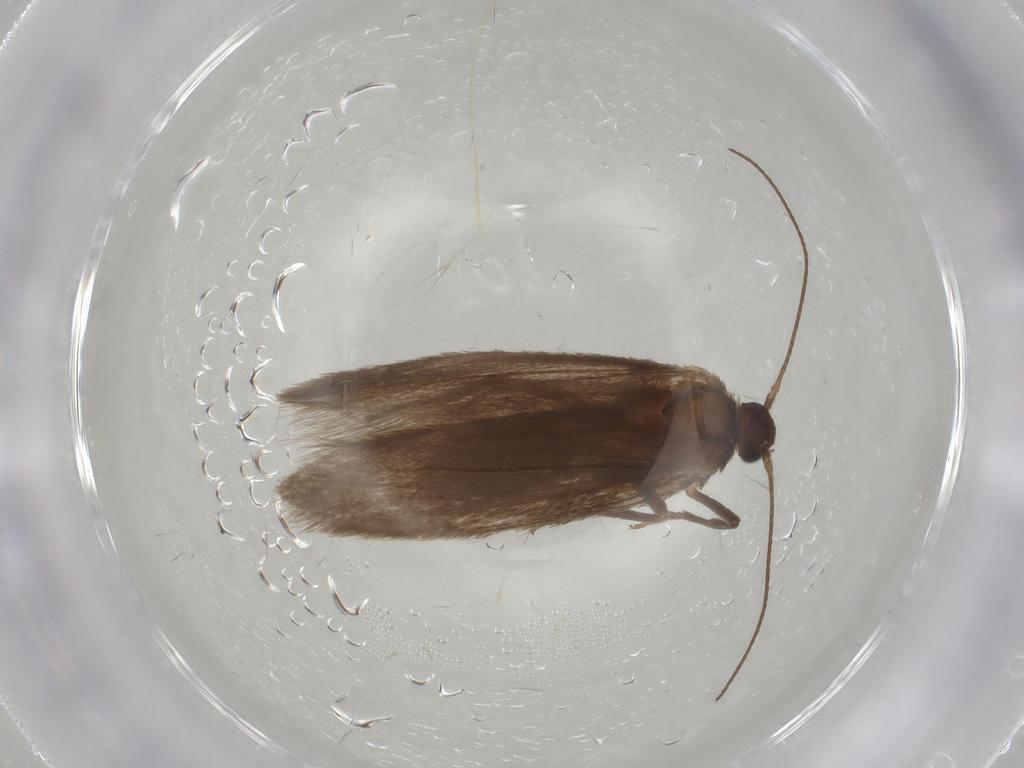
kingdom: Animalia
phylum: Arthropoda
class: Insecta
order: Lepidoptera
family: Limacodidae
